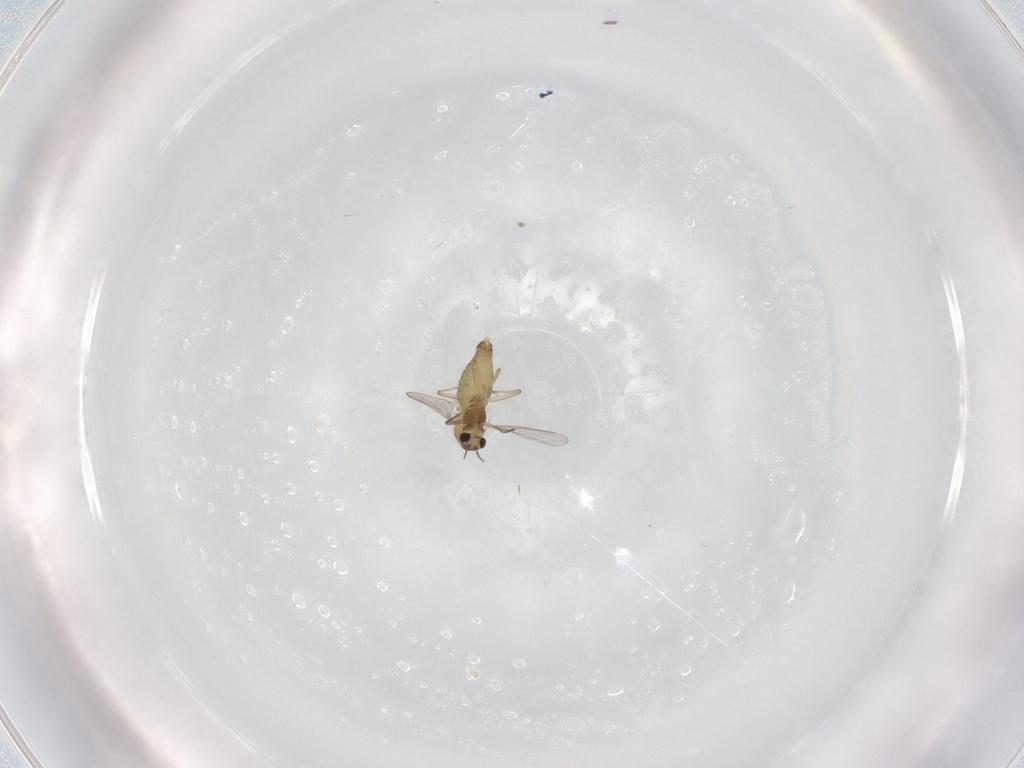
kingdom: Animalia
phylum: Arthropoda
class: Insecta
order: Diptera
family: Chironomidae
